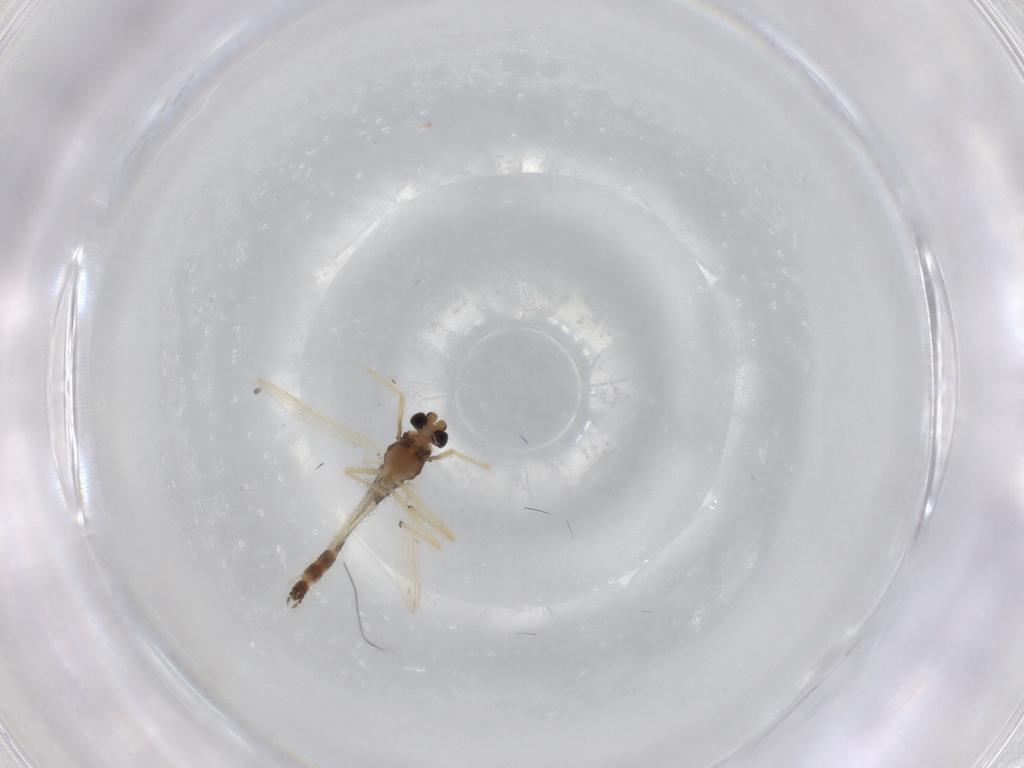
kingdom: Animalia
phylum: Arthropoda
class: Insecta
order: Diptera
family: Chironomidae
